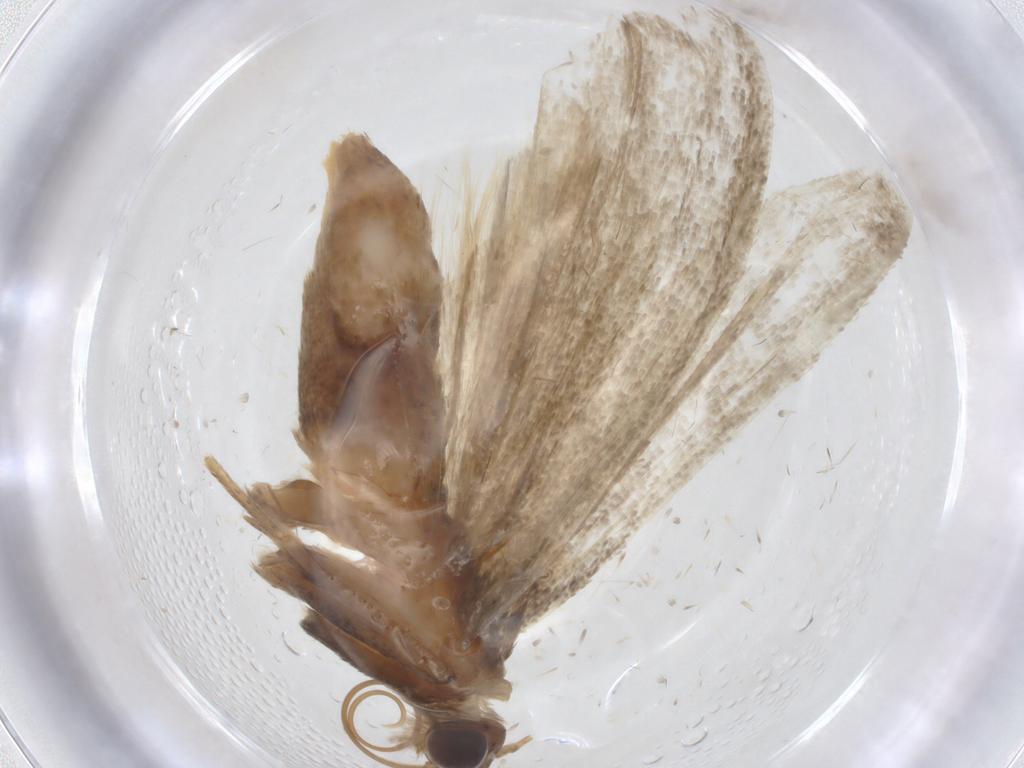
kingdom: Animalia
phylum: Arthropoda
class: Insecta
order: Lepidoptera
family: Pyralidae
